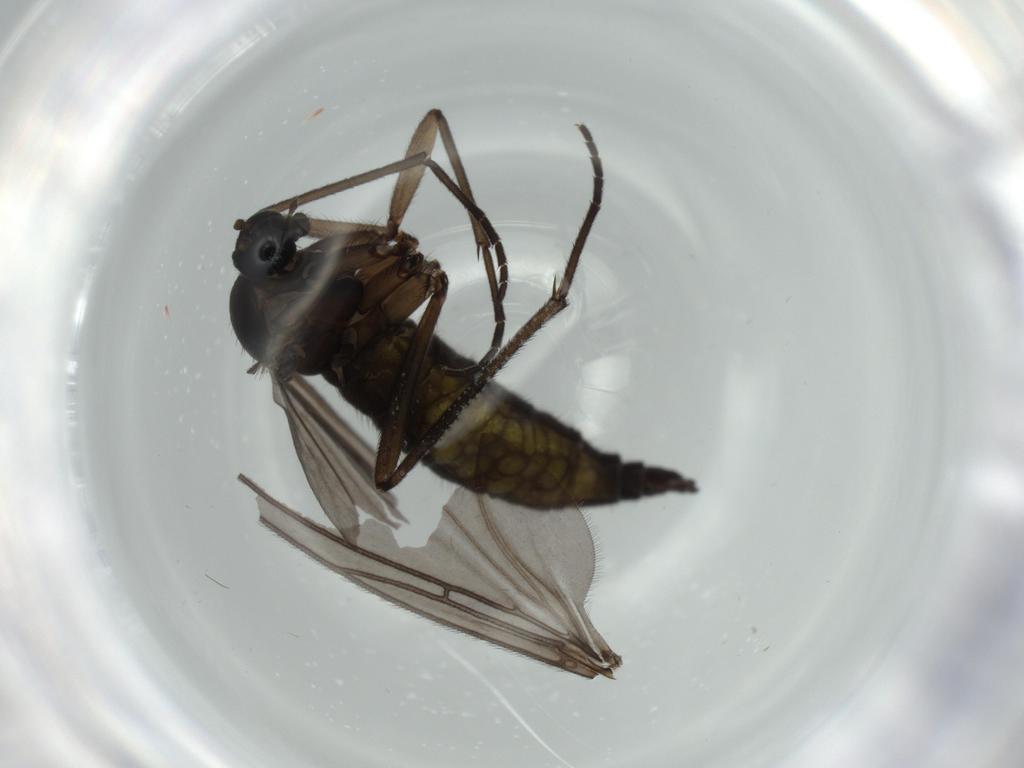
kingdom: Animalia
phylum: Arthropoda
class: Insecta
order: Diptera
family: Sciaridae
